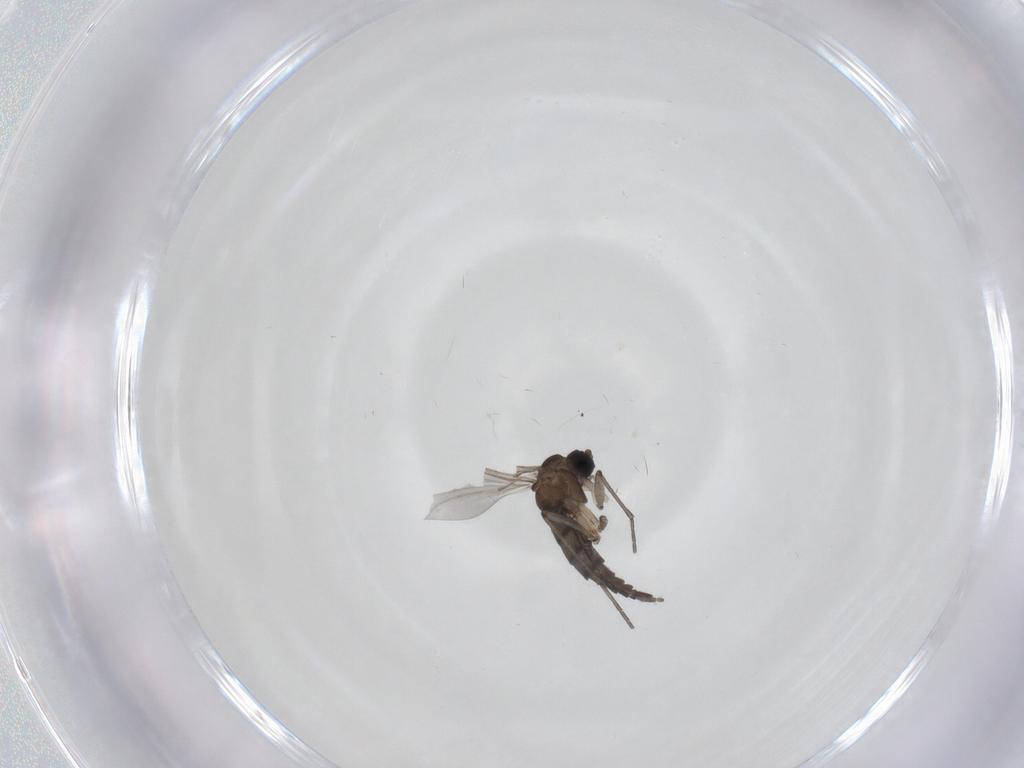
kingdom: Animalia
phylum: Arthropoda
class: Insecta
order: Diptera
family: Sciaridae
